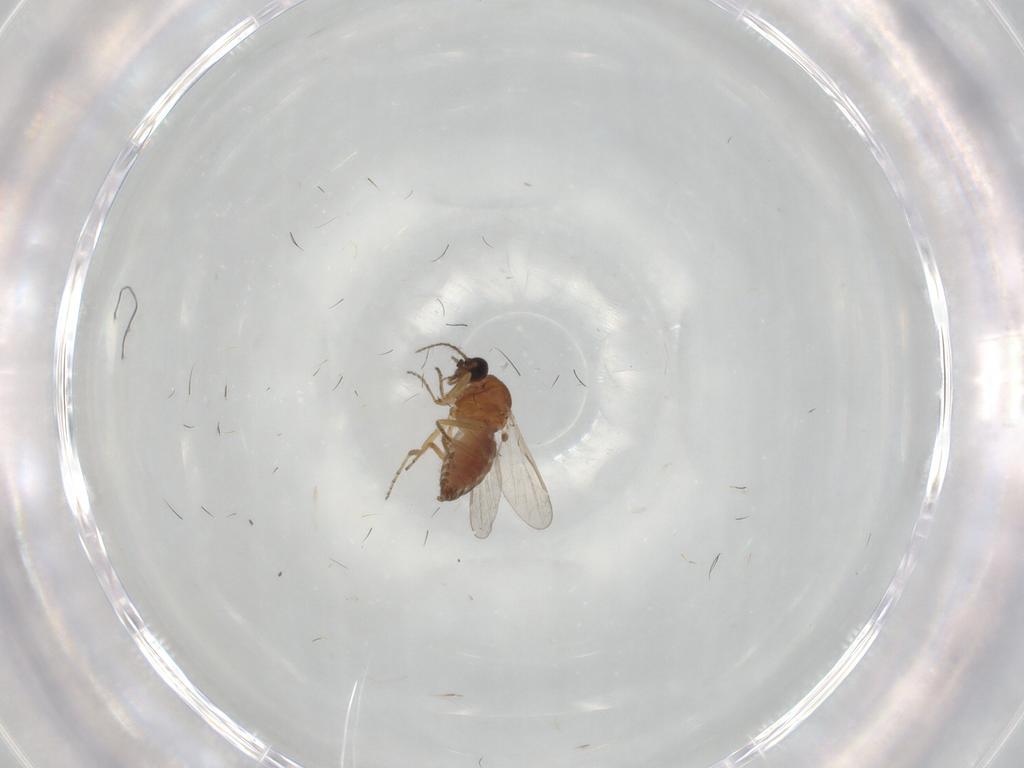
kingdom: Animalia
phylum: Arthropoda
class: Insecta
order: Diptera
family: Ceratopogonidae
